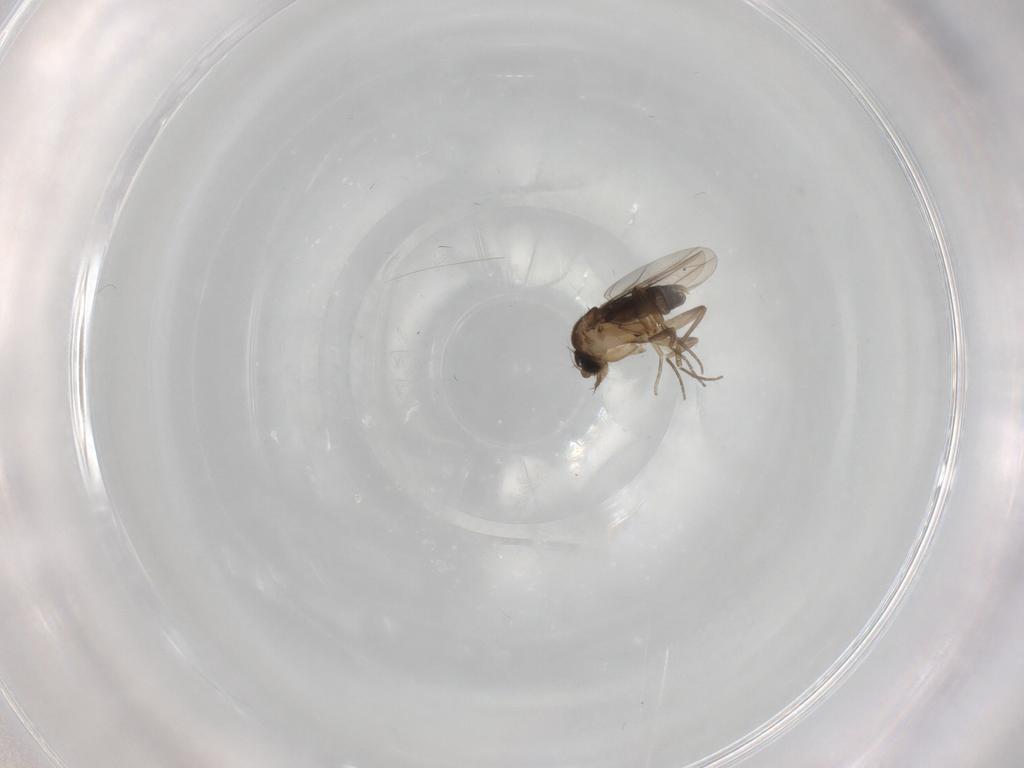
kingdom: Animalia
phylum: Arthropoda
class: Insecta
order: Diptera
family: Phoridae
